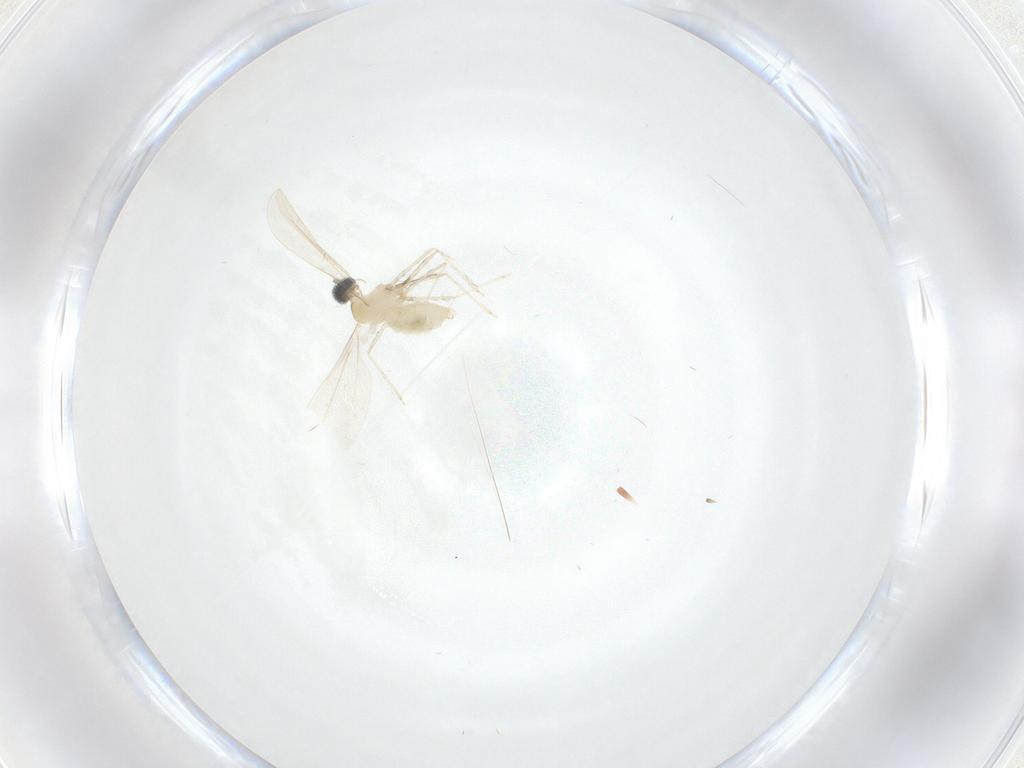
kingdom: Animalia
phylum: Arthropoda
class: Insecta
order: Diptera
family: Cecidomyiidae
